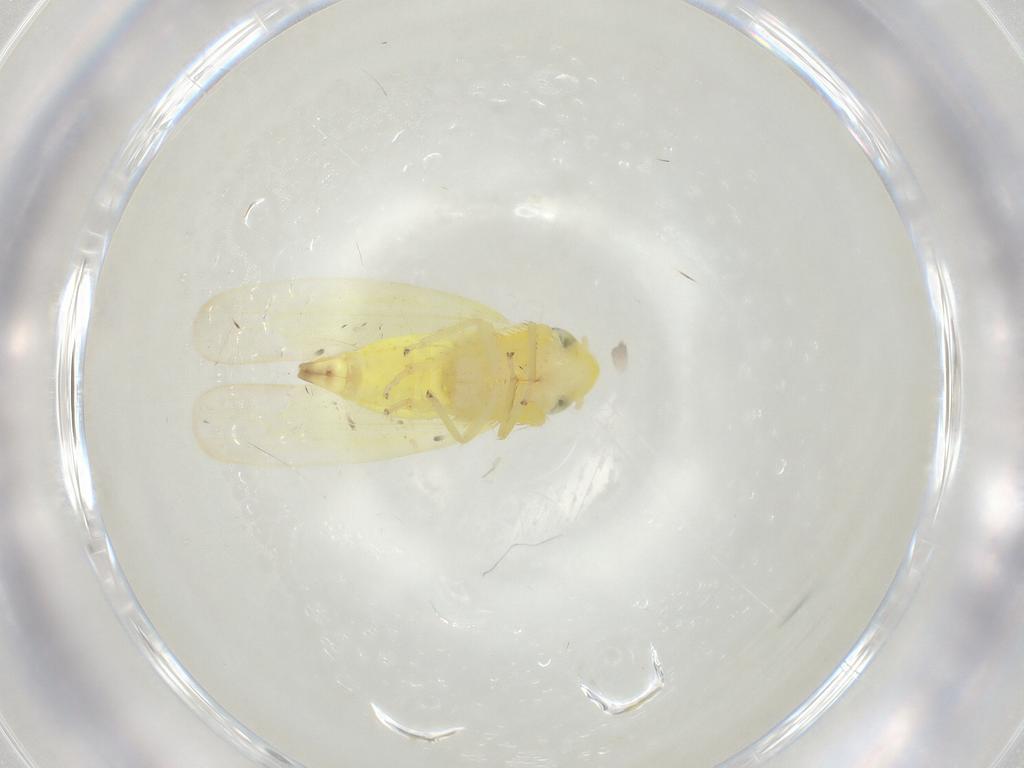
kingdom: Animalia
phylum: Arthropoda
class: Insecta
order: Hemiptera
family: Cicadellidae
